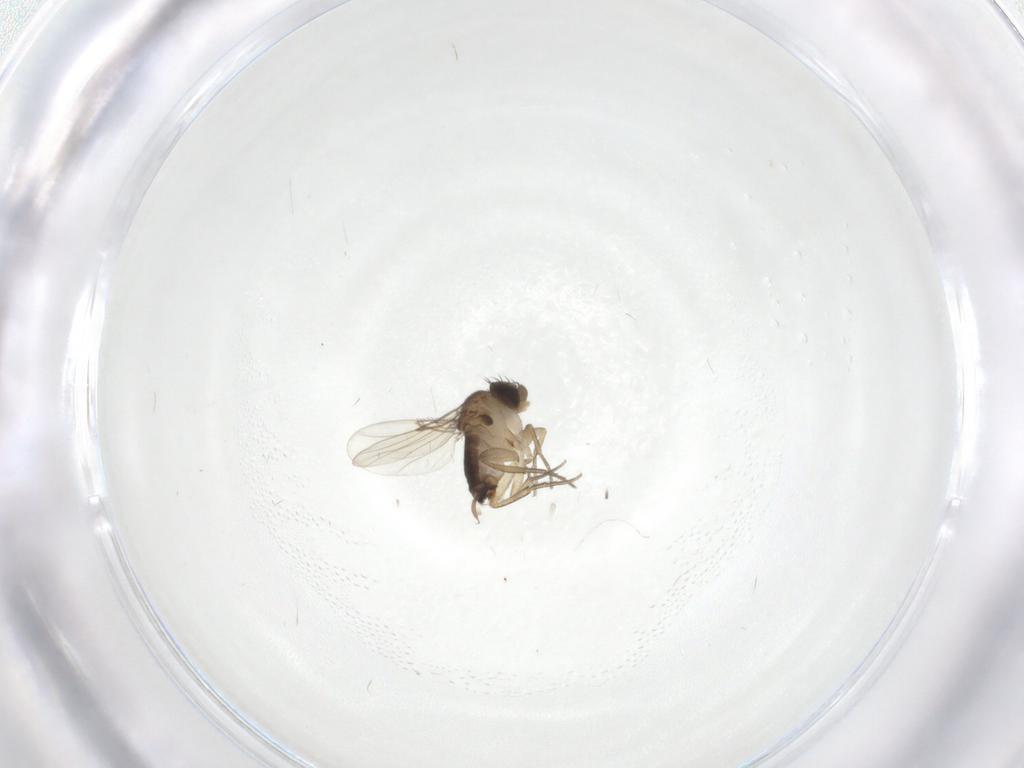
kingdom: Animalia
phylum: Arthropoda
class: Insecta
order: Diptera
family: Phoridae
